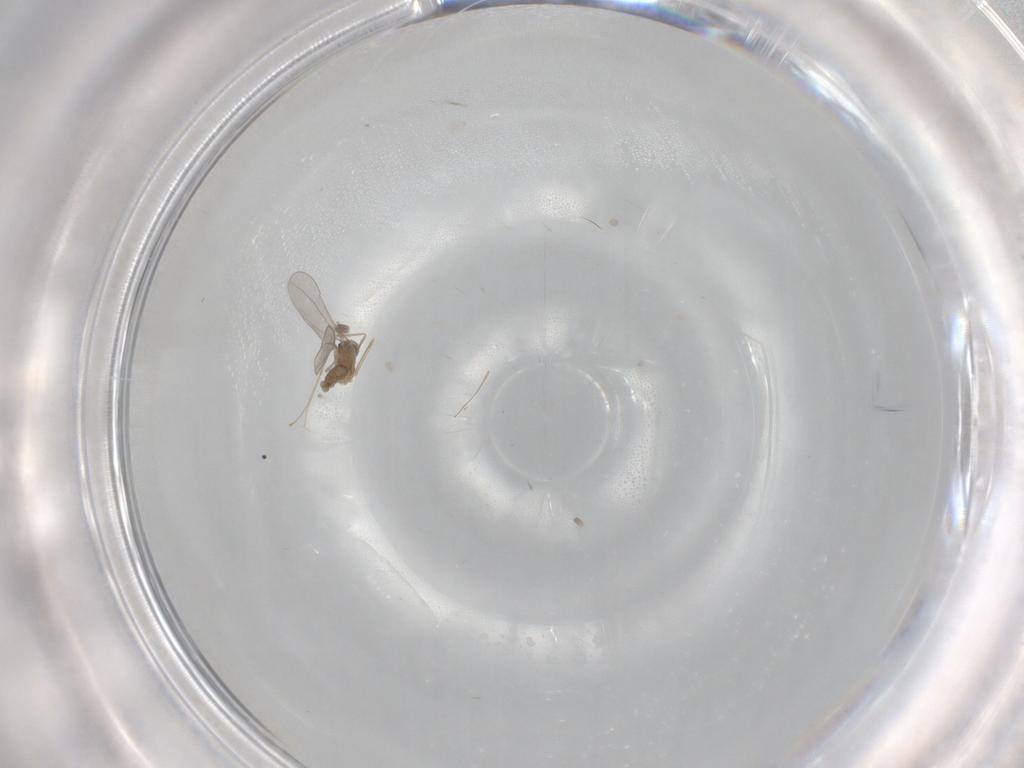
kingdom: Animalia
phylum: Arthropoda
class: Insecta
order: Diptera
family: Cecidomyiidae
